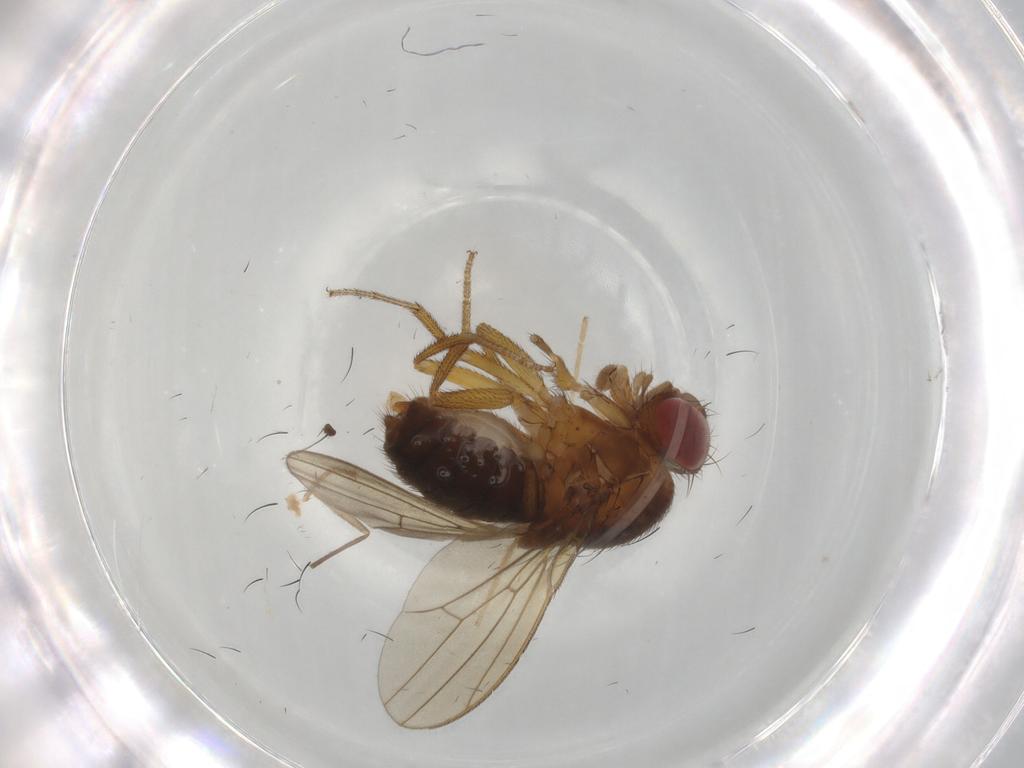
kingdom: Animalia
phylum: Arthropoda
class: Insecta
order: Diptera
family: Drosophilidae
